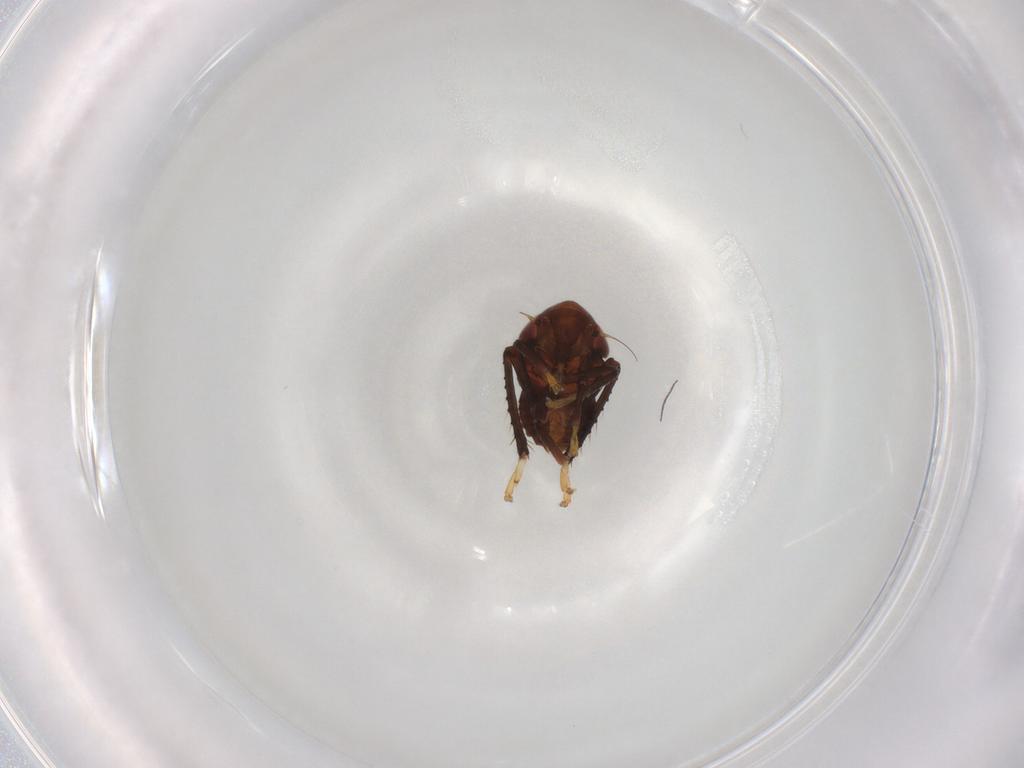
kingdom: Animalia
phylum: Arthropoda
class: Insecta
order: Hemiptera
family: Cicadellidae
